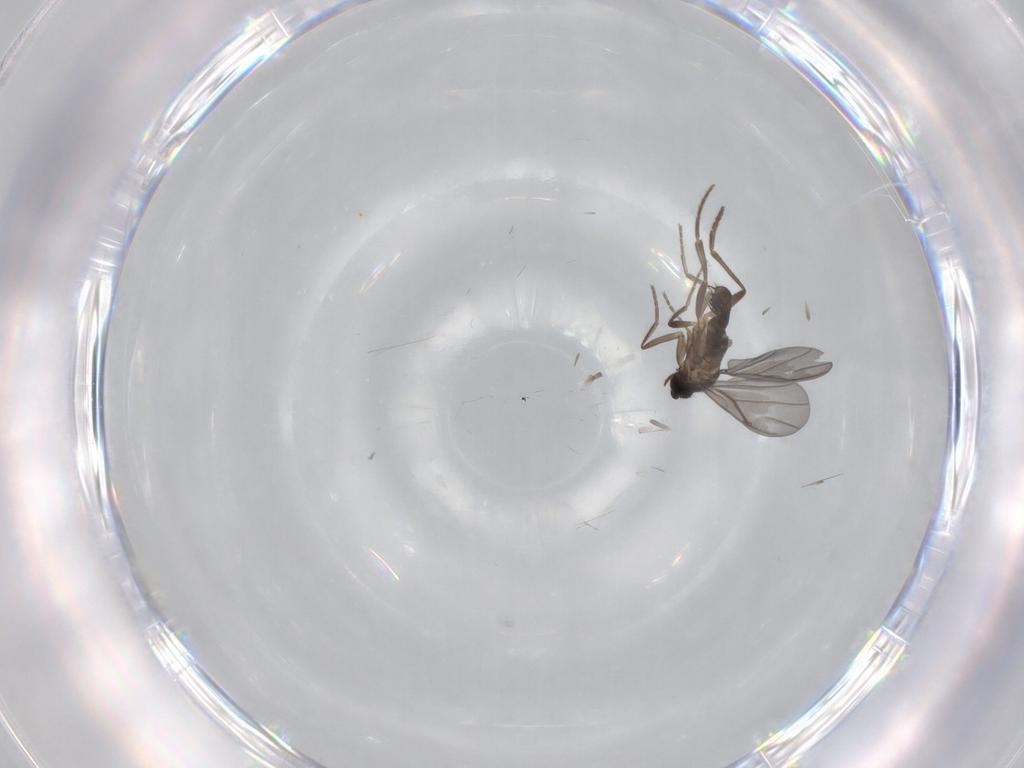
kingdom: Animalia
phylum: Arthropoda
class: Insecta
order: Diptera
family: Phoridae
